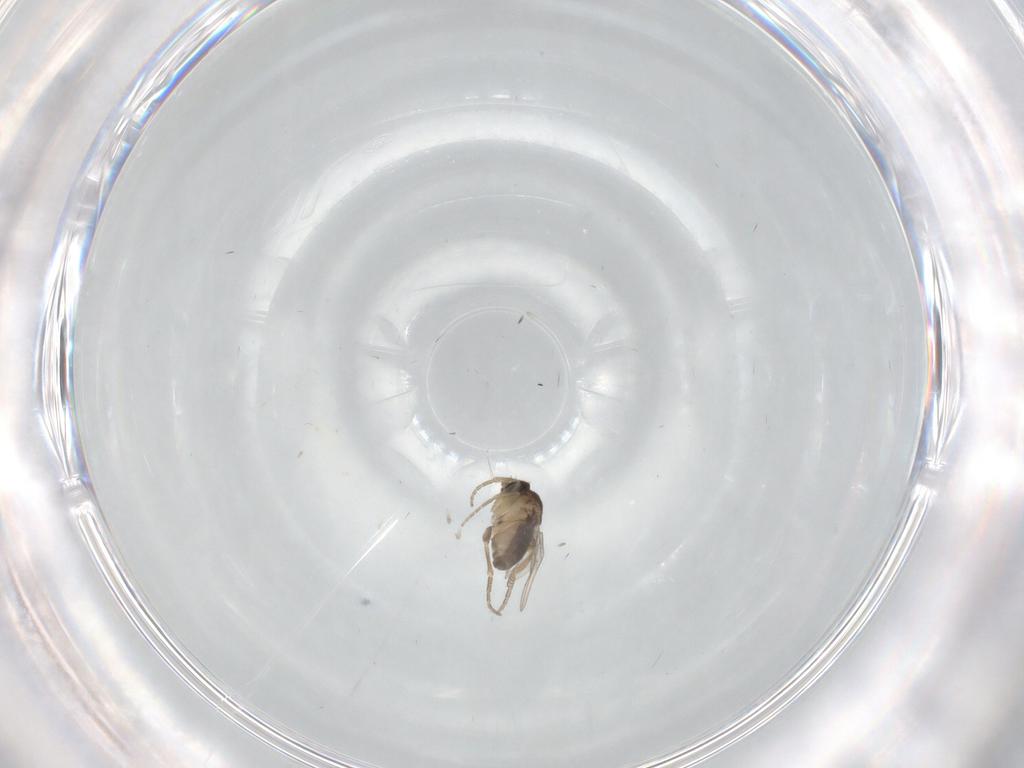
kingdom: Animalia
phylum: Arthropoda
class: Insecta
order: Diptera
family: Phoridae
